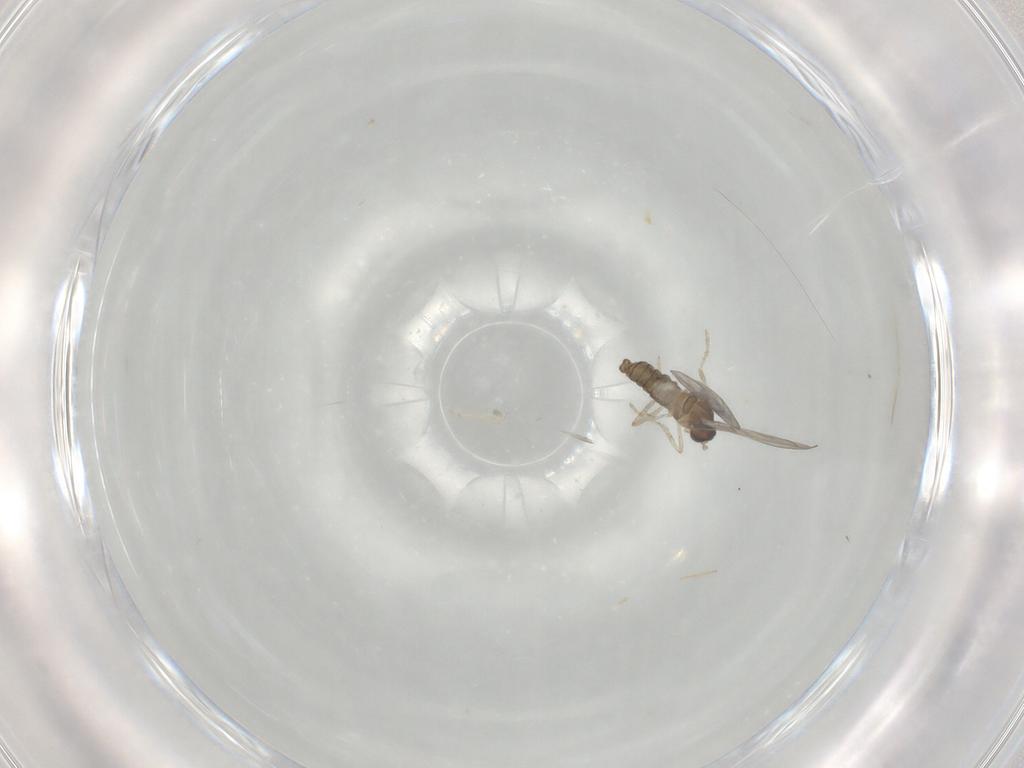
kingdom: Animalia
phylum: Arthropoda
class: Insecta
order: Diptera
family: Cecidomyiidae
